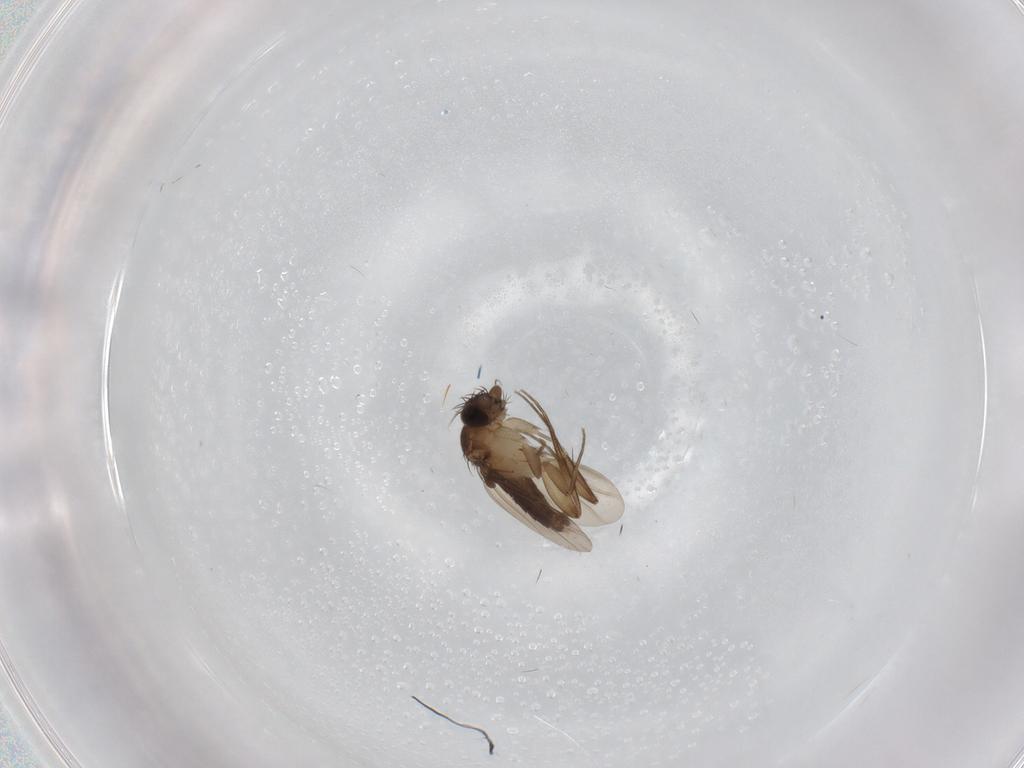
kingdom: Animalia
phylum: Arthropoda
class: Insecta
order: Diptera
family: Phoridae
